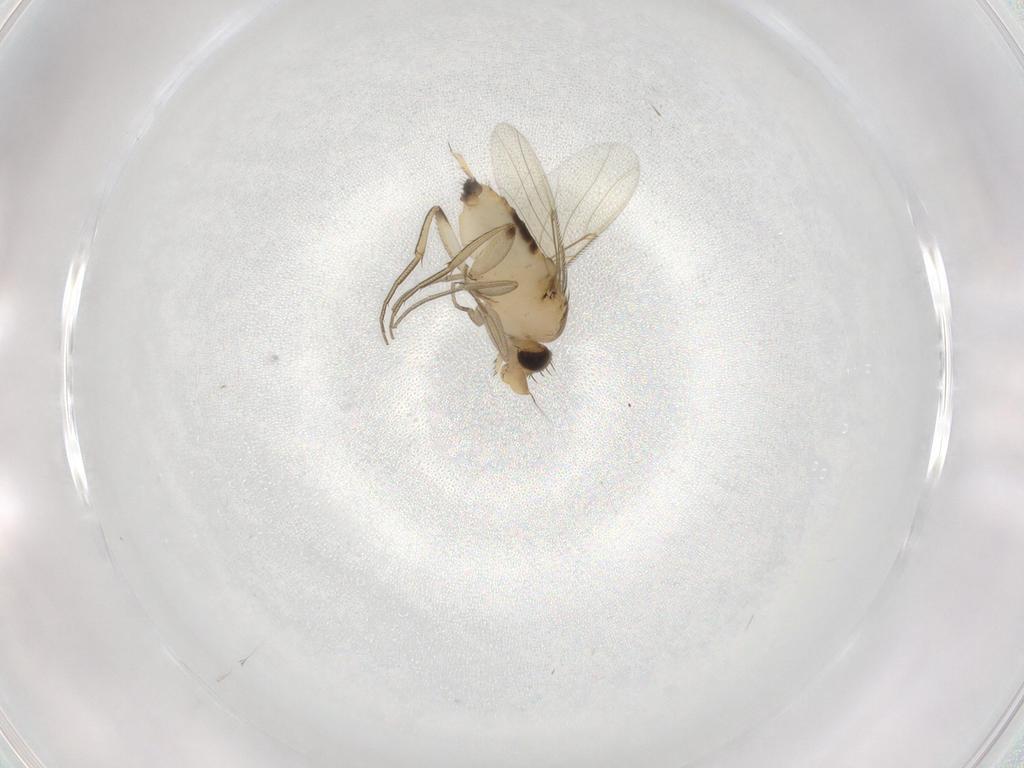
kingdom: Animalia
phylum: Arthropoda
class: Insecta
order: Diptera
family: Phoridae
